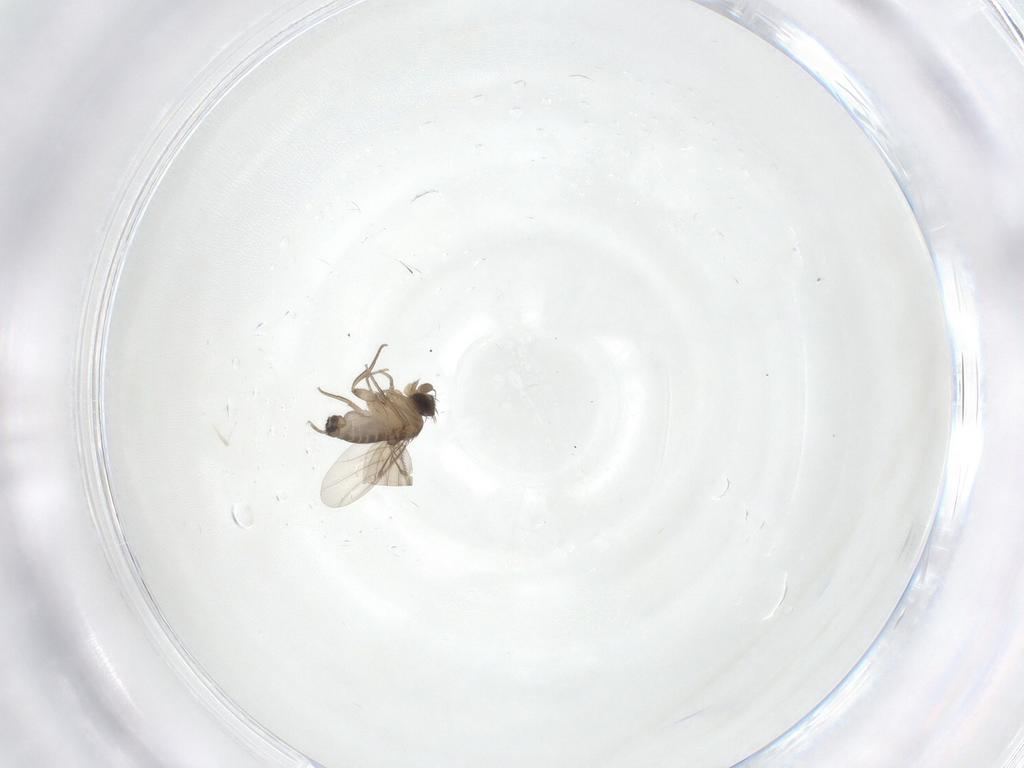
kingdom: Animalia
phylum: Arthropoda
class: Insecta
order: Diptera
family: Phoridae
